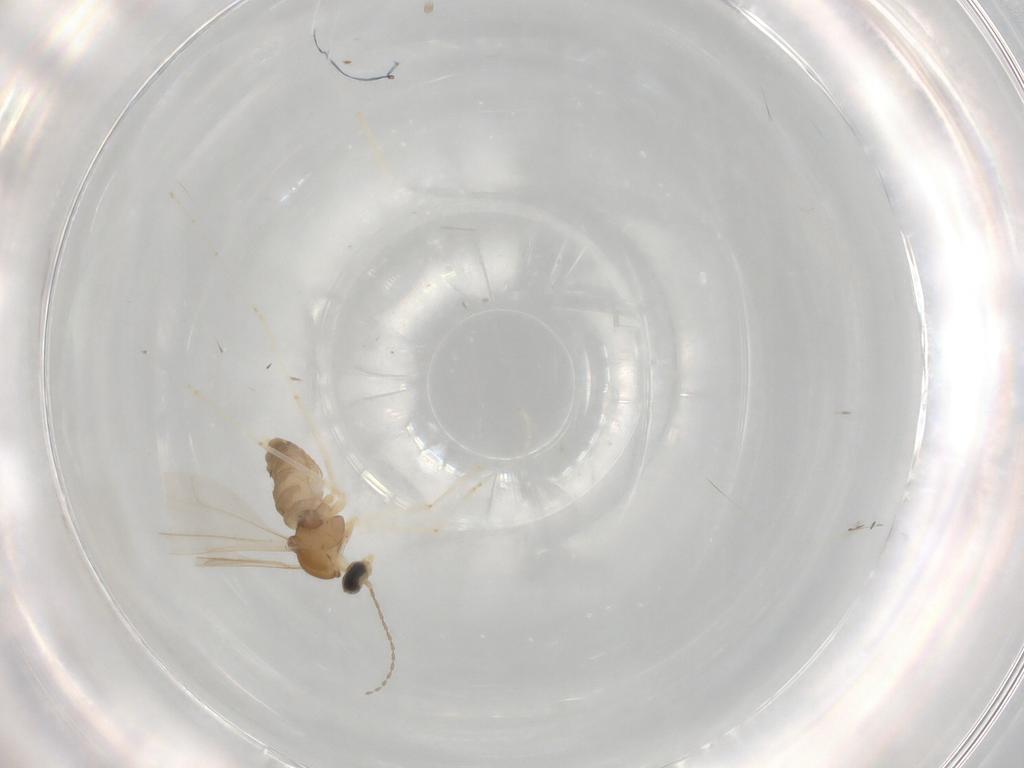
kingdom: Animalia
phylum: Arthropoda
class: Insecta
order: Diptera
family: Cecidomyiidae
